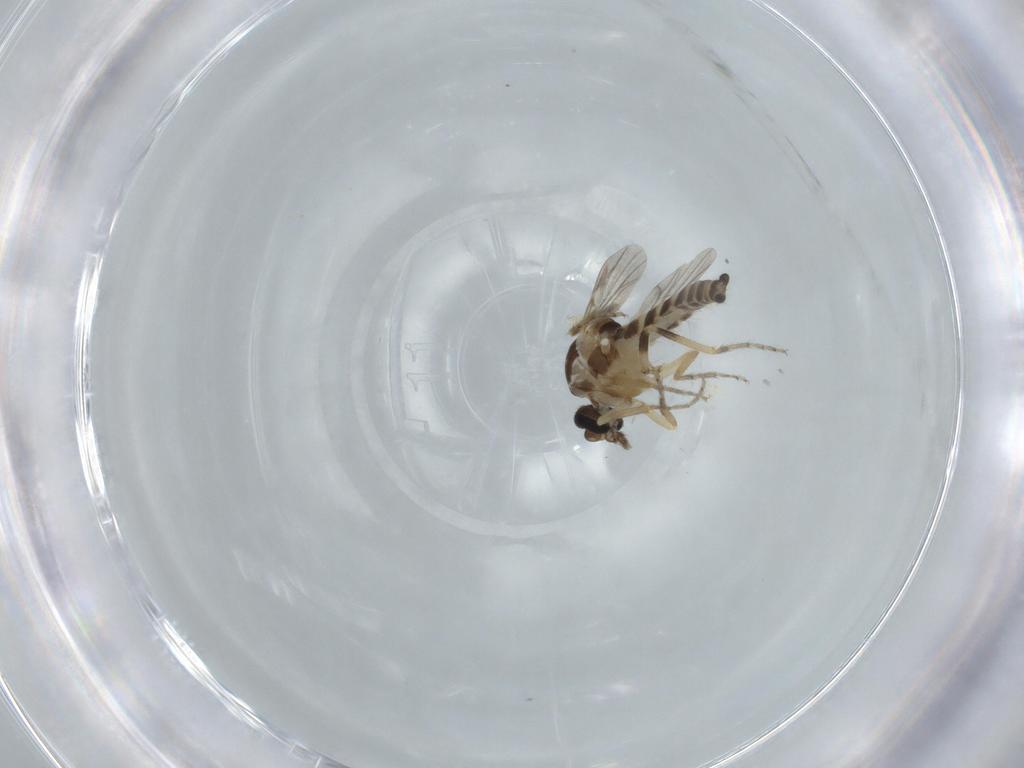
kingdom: Animalia
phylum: Arthropoda
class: Insecta
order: Diptera
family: Ceratopogonidae
